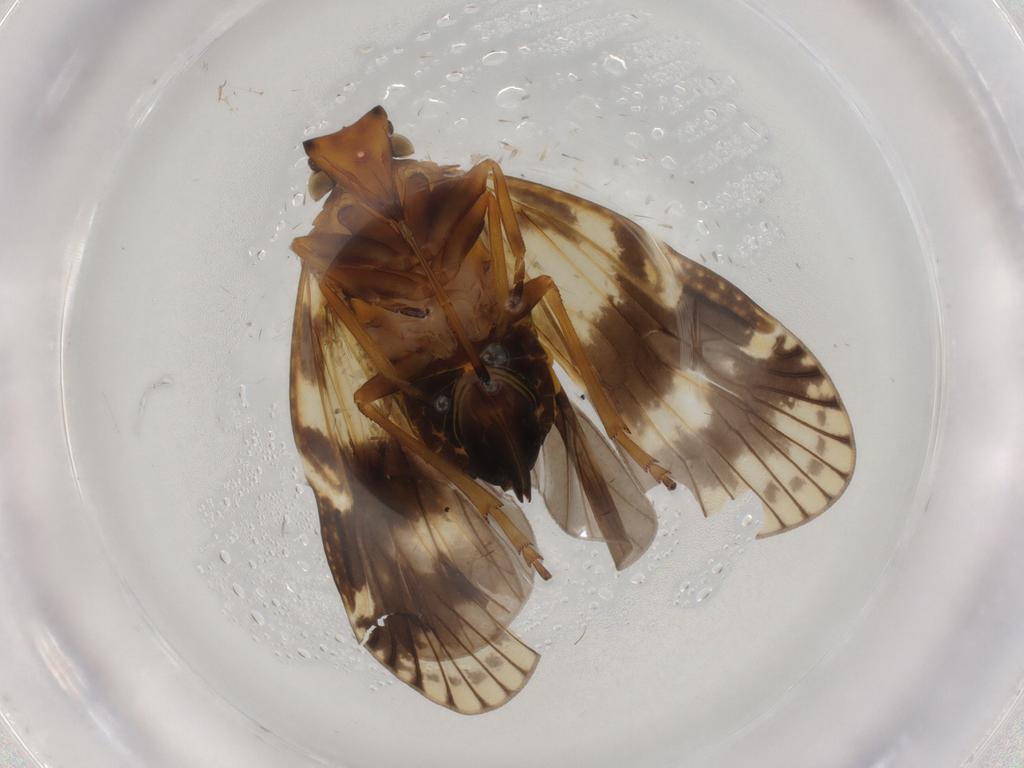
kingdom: Animalia
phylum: Arthropoda
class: Insecta
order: Hemiptera
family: Cixiidae
